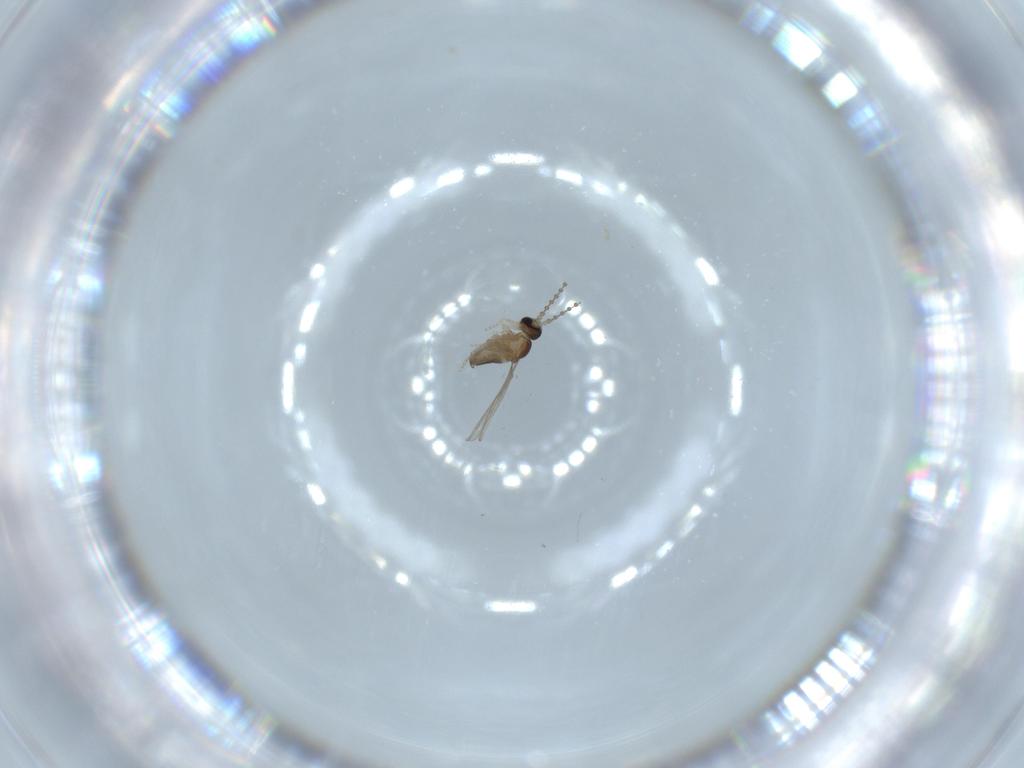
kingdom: Animalia
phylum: Arthropoda
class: Insecta
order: Diptera
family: Cecidomyiidae
